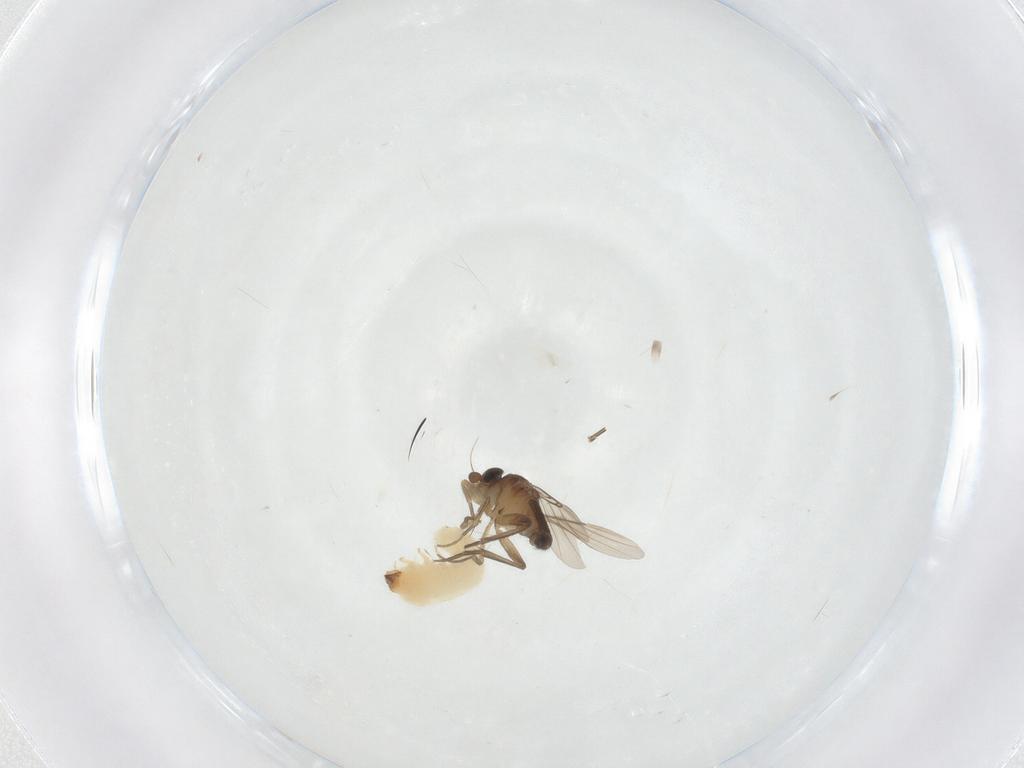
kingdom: Animalia
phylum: Arthropoda
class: Insecta
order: Diptera
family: Phoridae
